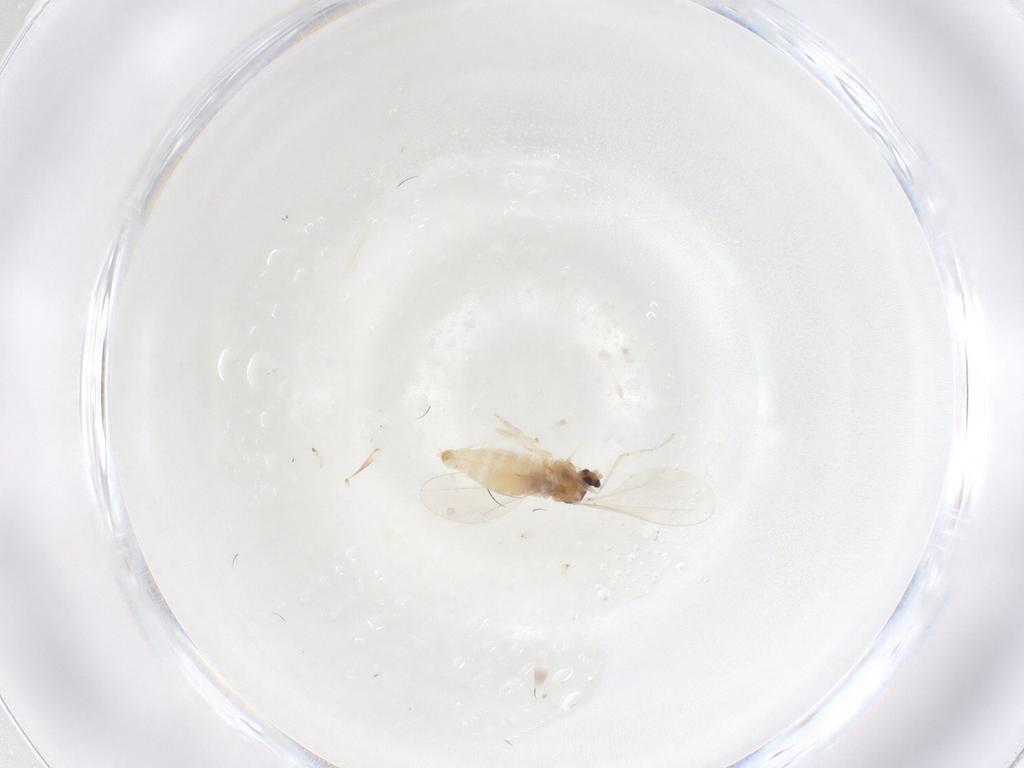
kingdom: Animalia
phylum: Arthropoda
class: Insecta
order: Diptera
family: Cecidomyiidae
